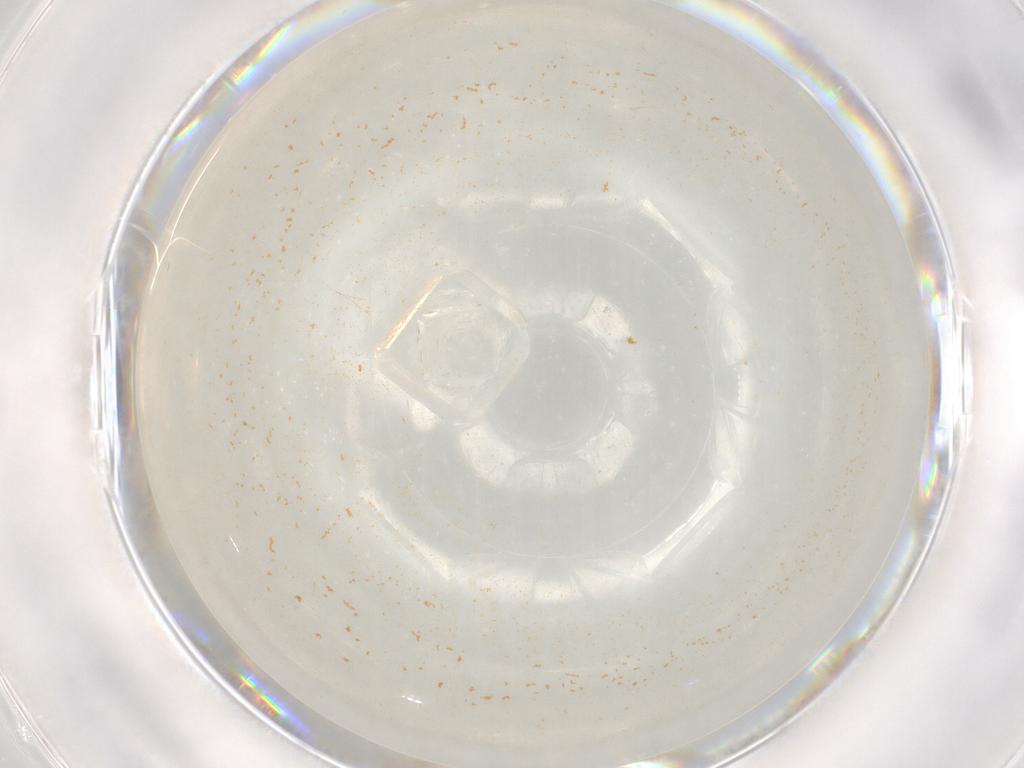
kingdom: Animalia
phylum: Arthropoda
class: Insecta
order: Diptera
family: Cecidomyiidae
